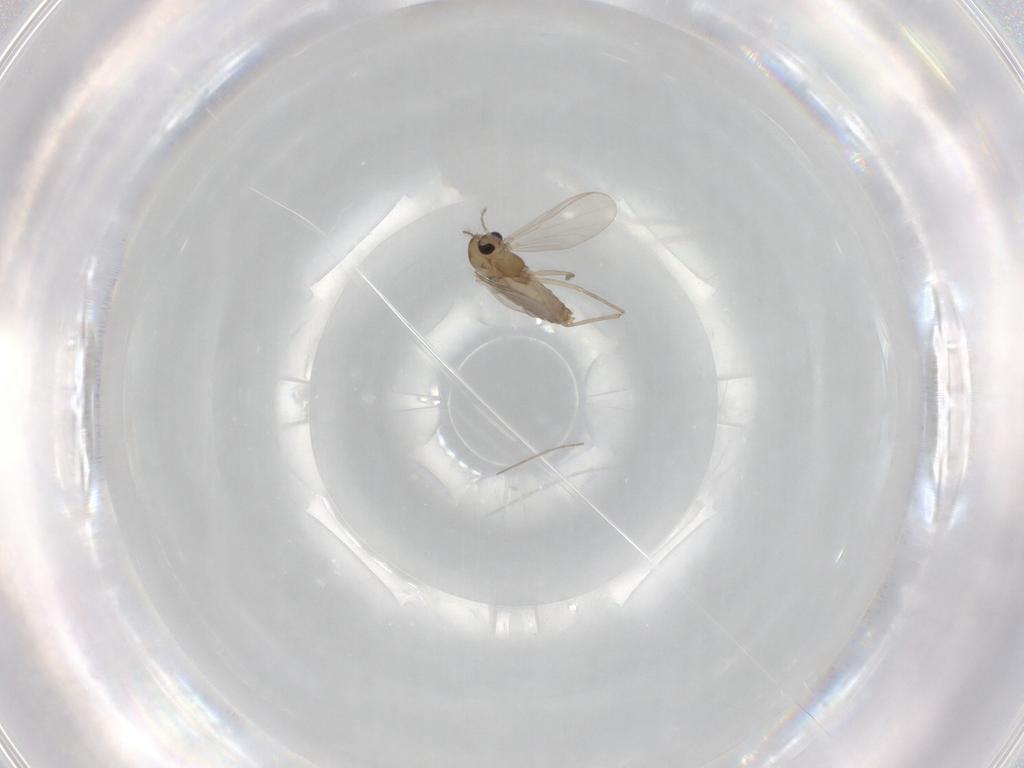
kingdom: Animalia
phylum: Arthropoda
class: Insecta
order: Diptera
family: Chironomidae
